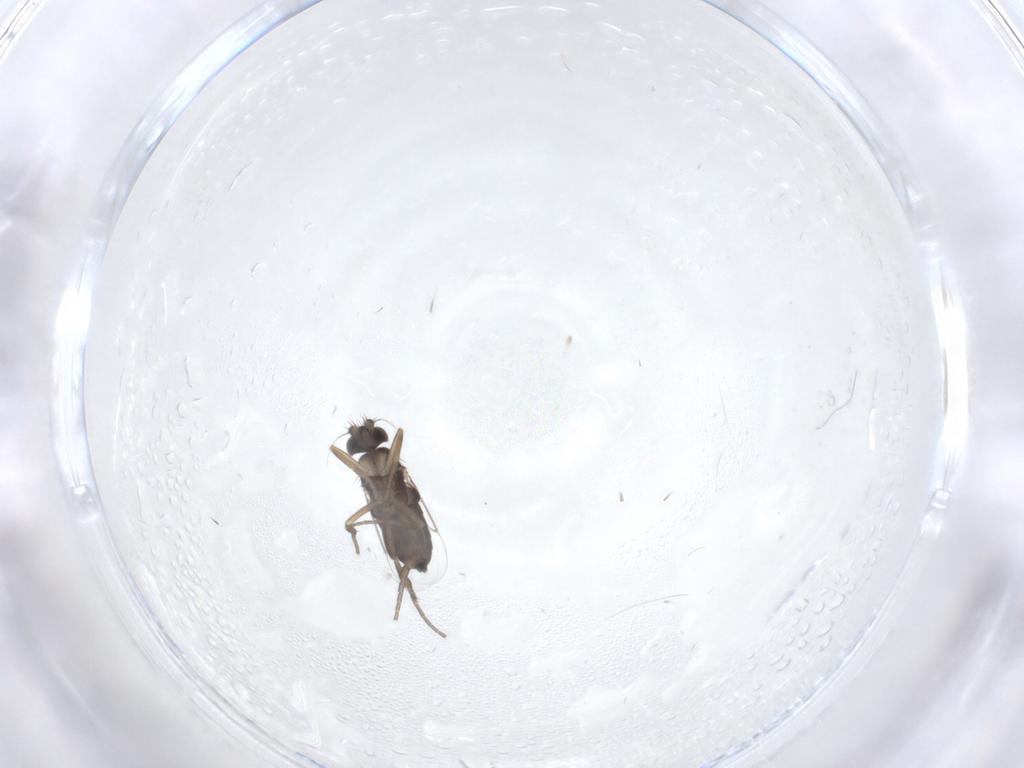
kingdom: Animalia
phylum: Arthropoda
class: Insecta
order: Diptera
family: Phoridae
